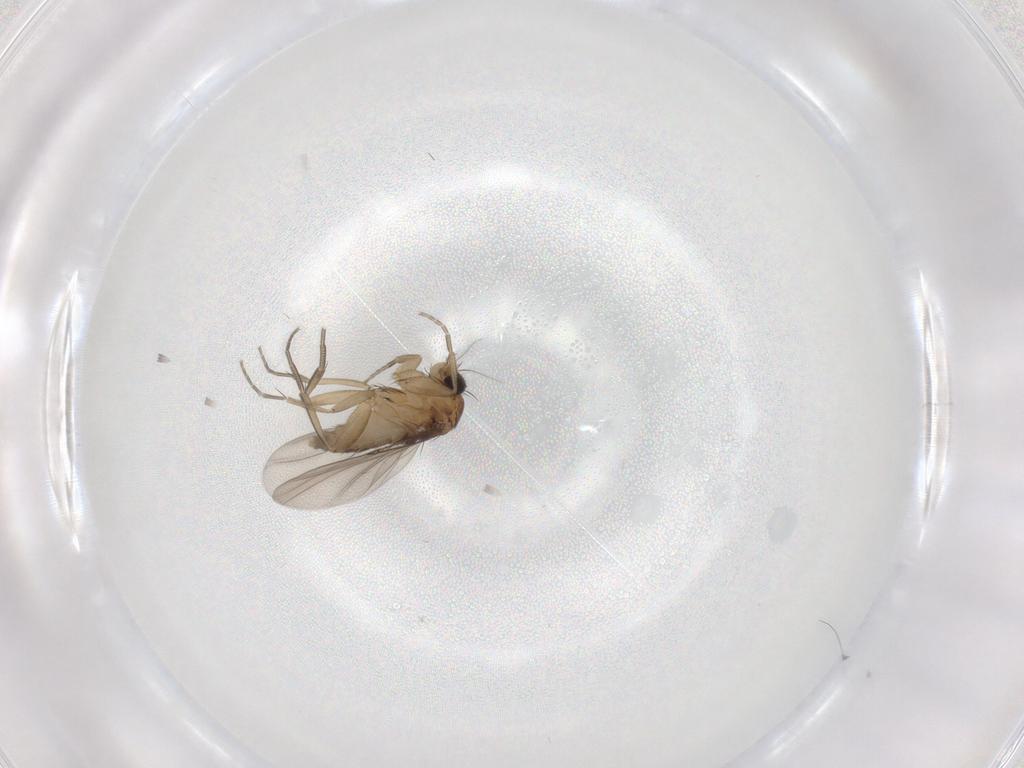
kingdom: Animalia
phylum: Arthropoda
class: Insecta
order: Diptera
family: Phoridae
